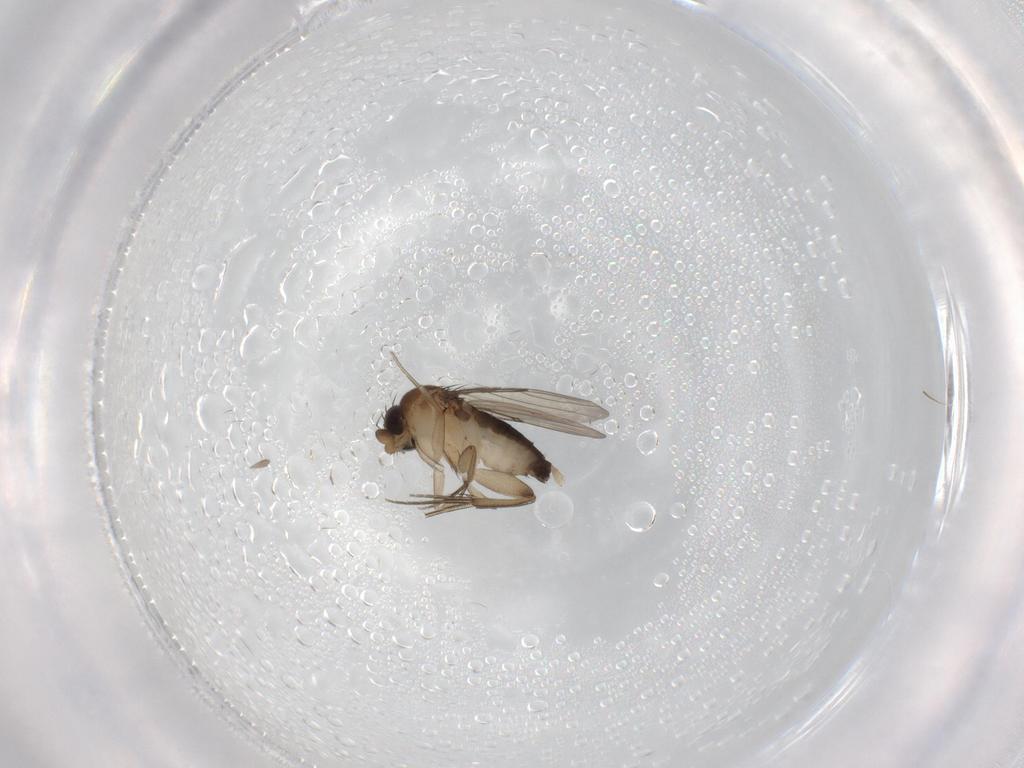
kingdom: Animalia
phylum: Arthropoda
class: Insecta
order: Diptera
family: Phoridae
